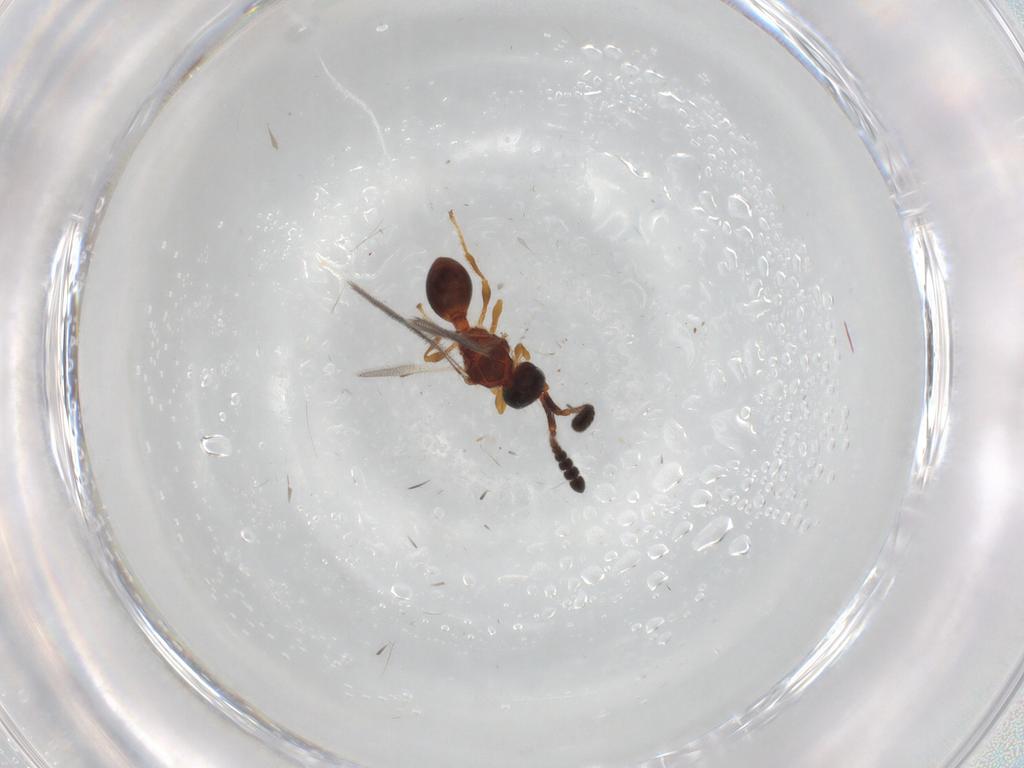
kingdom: Animalia
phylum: Arthropoda
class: Insecta
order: Hymenoptera
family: Diapriidae
